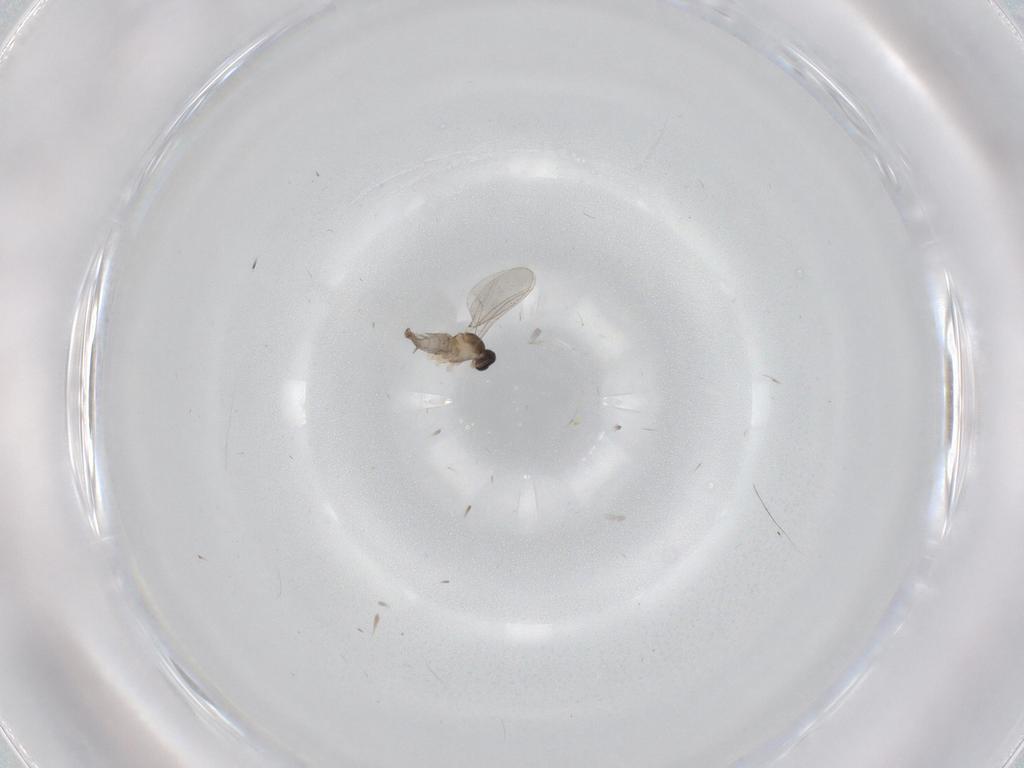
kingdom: Animalia
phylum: Arthropoda
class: Insecta
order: Diptera
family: Cecidomyiidae
